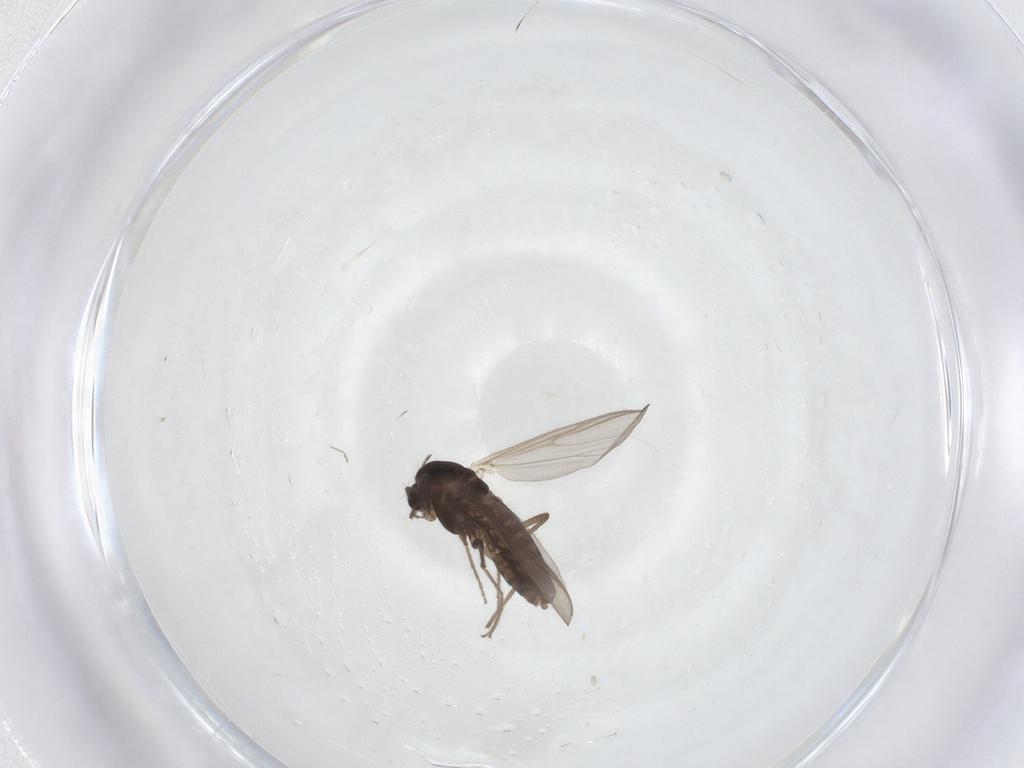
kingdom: Animalia
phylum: Arthropoda
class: Insecta
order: Diptera
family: Chironomidae
